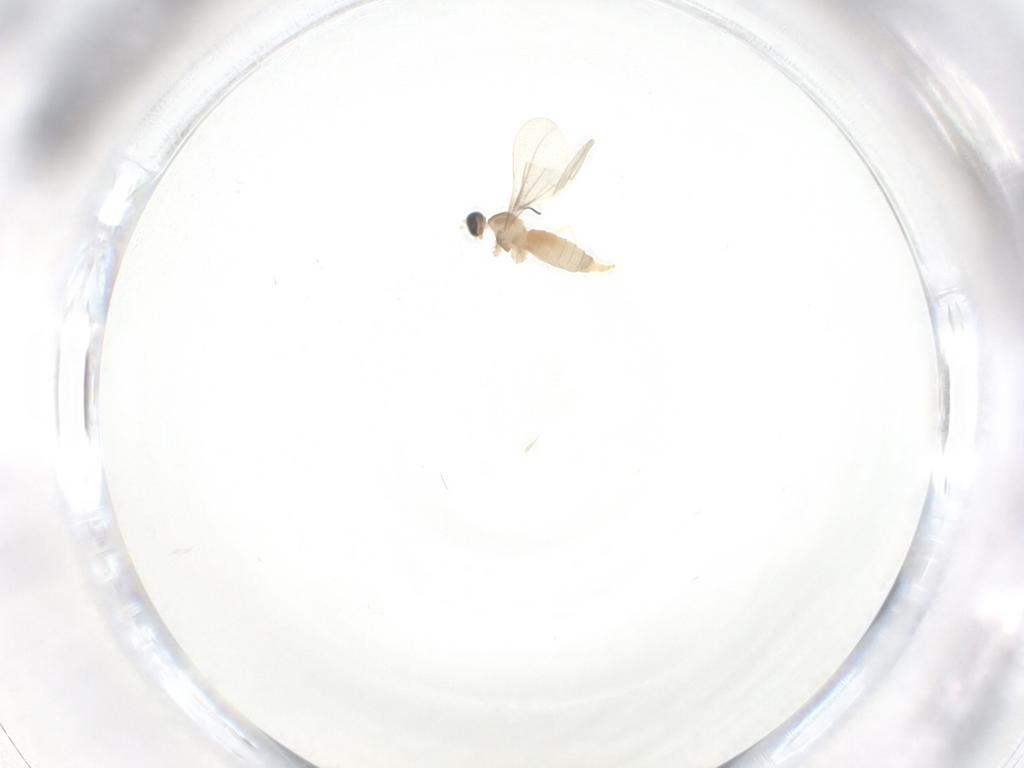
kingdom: Animalia
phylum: Arthropoda
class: Insecta
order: Diptera
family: Cecidomyiidae
